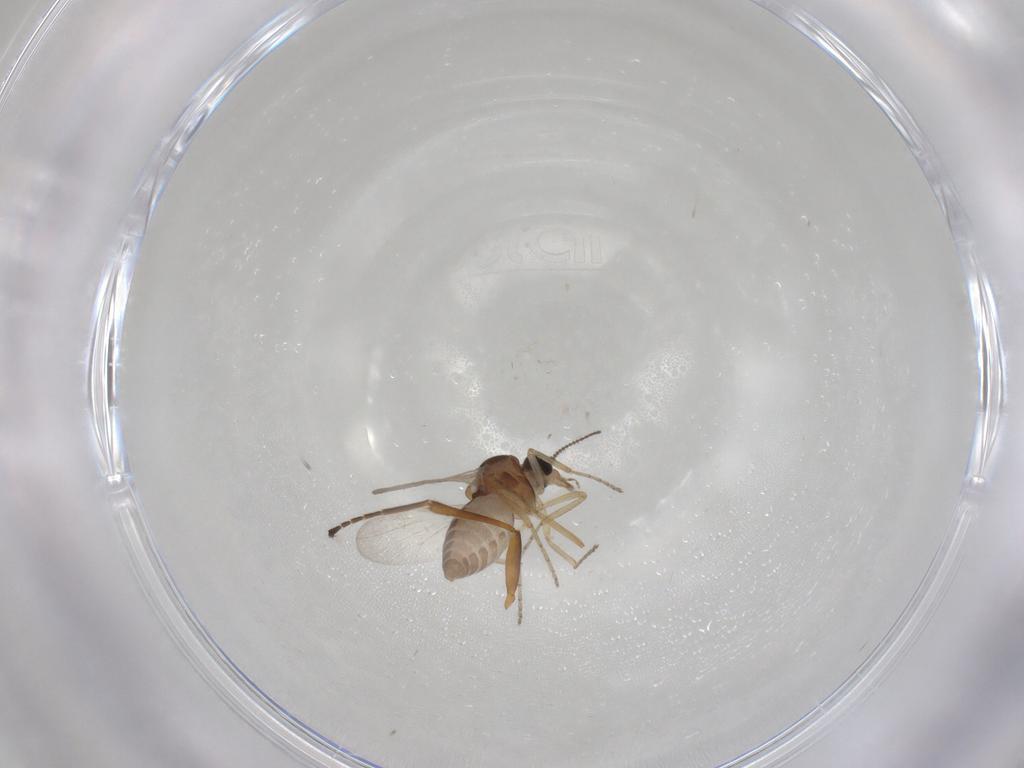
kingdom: Animalia
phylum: Arthropoda
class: Insecta
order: Diptera
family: Ceratopogonidae
